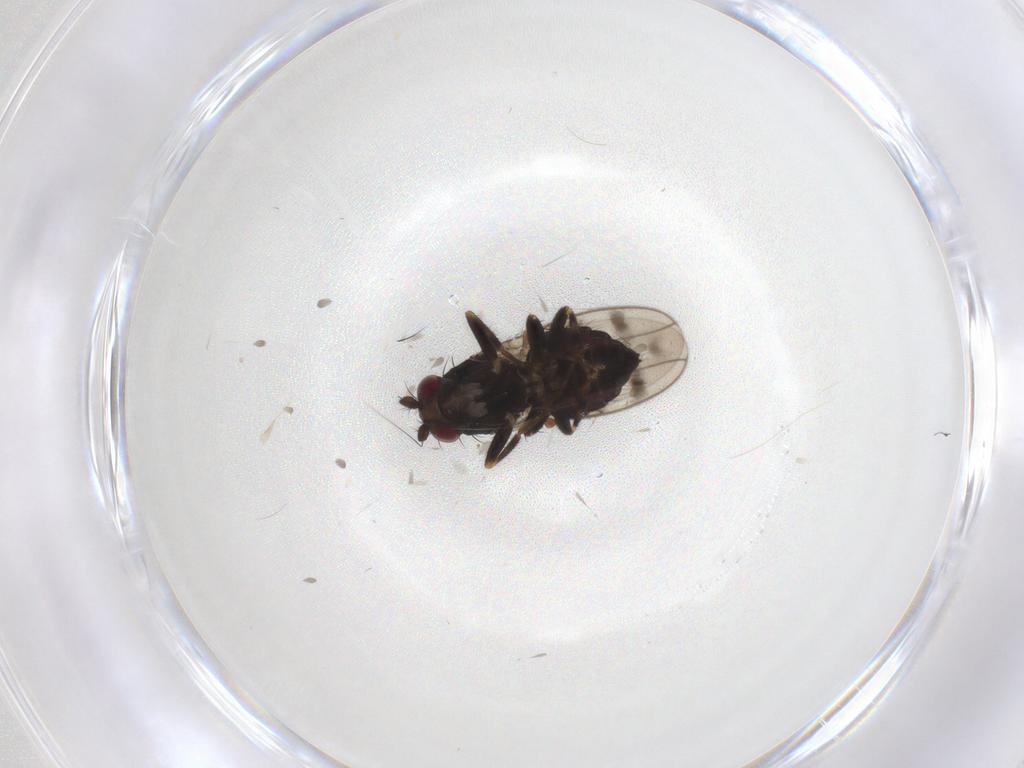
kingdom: Animalia
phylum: Arthropoda
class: Insecta
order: Diptera
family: Sphaeroceridae
